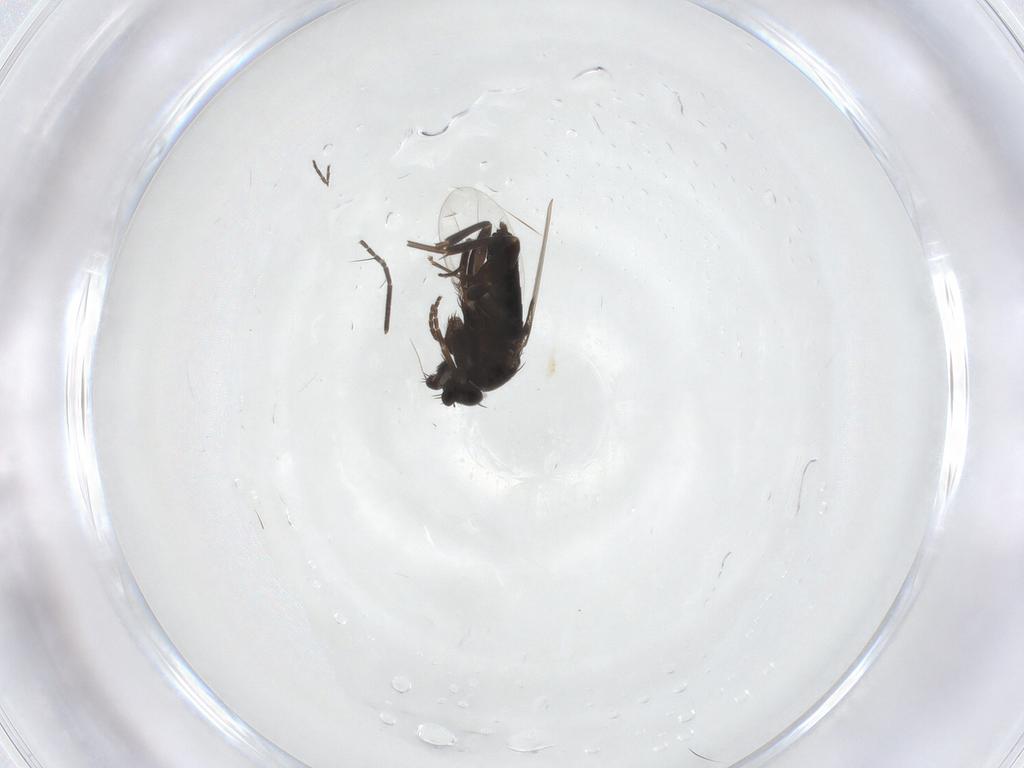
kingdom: Animalia
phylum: Arthropoda
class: Insecta
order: Diptera
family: Phoridae
